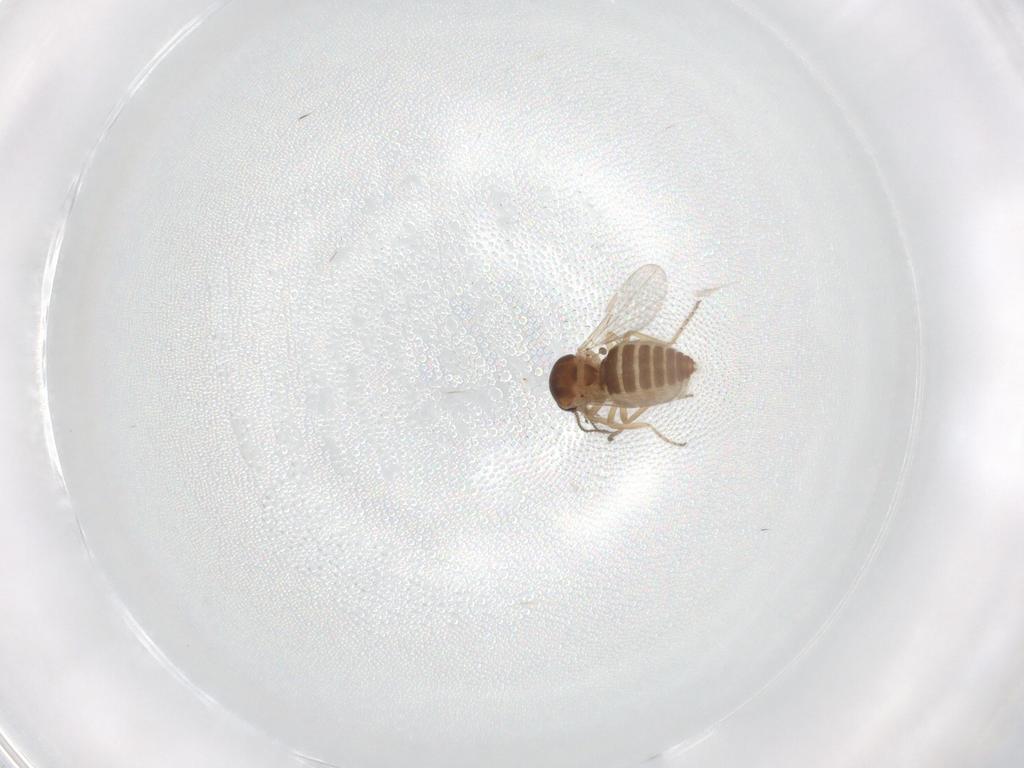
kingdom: Animalia
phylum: Arthropoda
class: Insecta
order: Diptera
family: Ceratopogonidae
